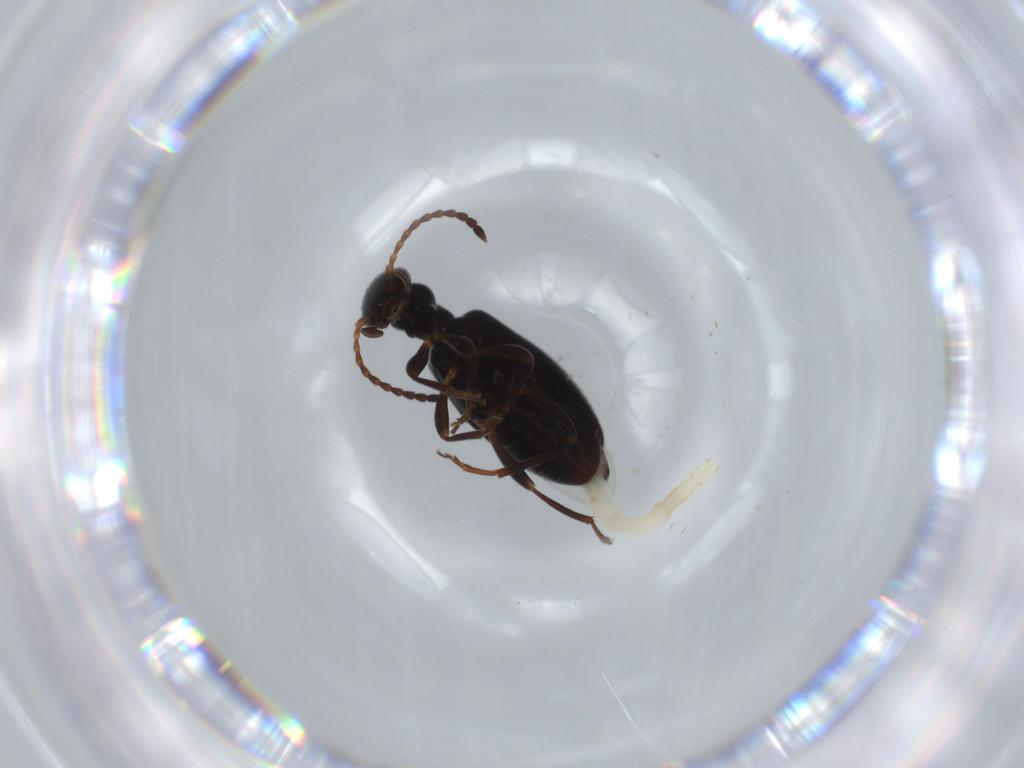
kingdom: Animalia
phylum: Arthropoda
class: Insecta
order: Coleoptera
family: Anthicidae
